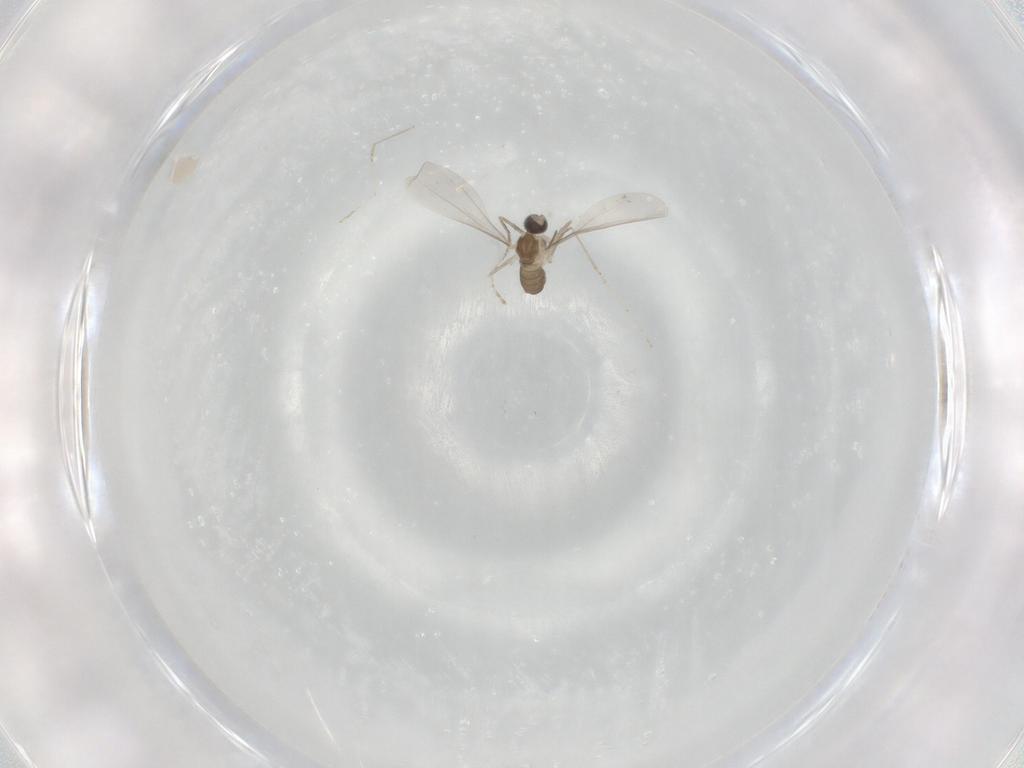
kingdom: Animalia
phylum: Arthropoda
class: Insecta
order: Diptera
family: Cecidomyiidae
